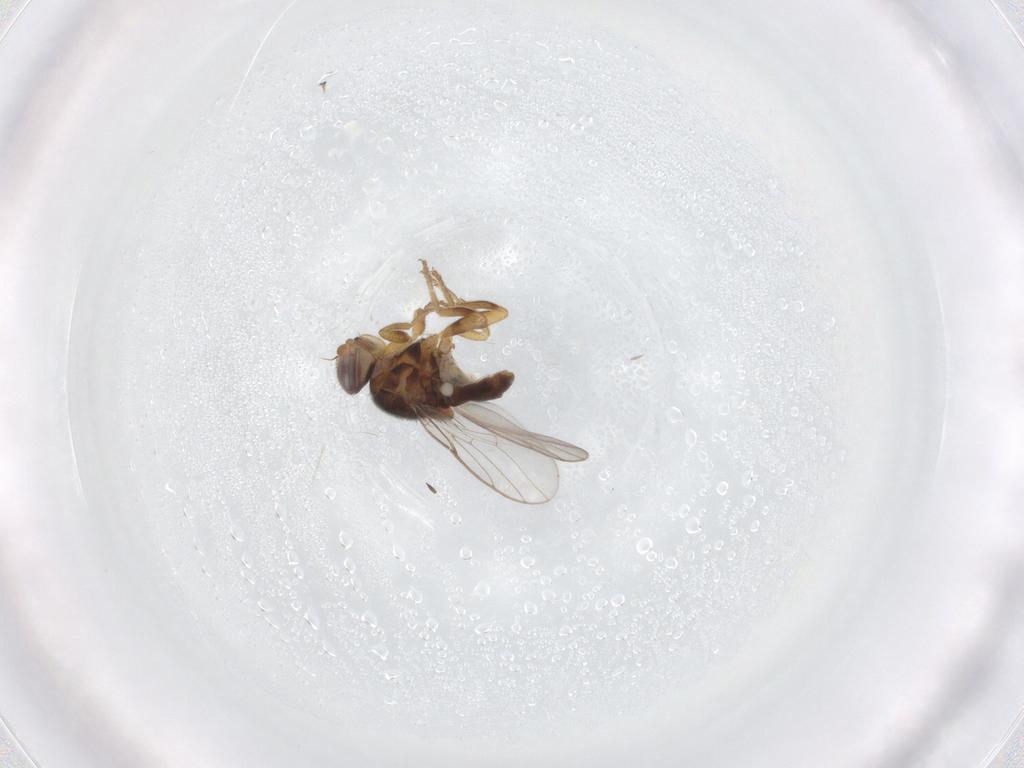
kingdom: Animalia
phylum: Arthropoda
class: Insecta
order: Diptera
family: Chloropidae
